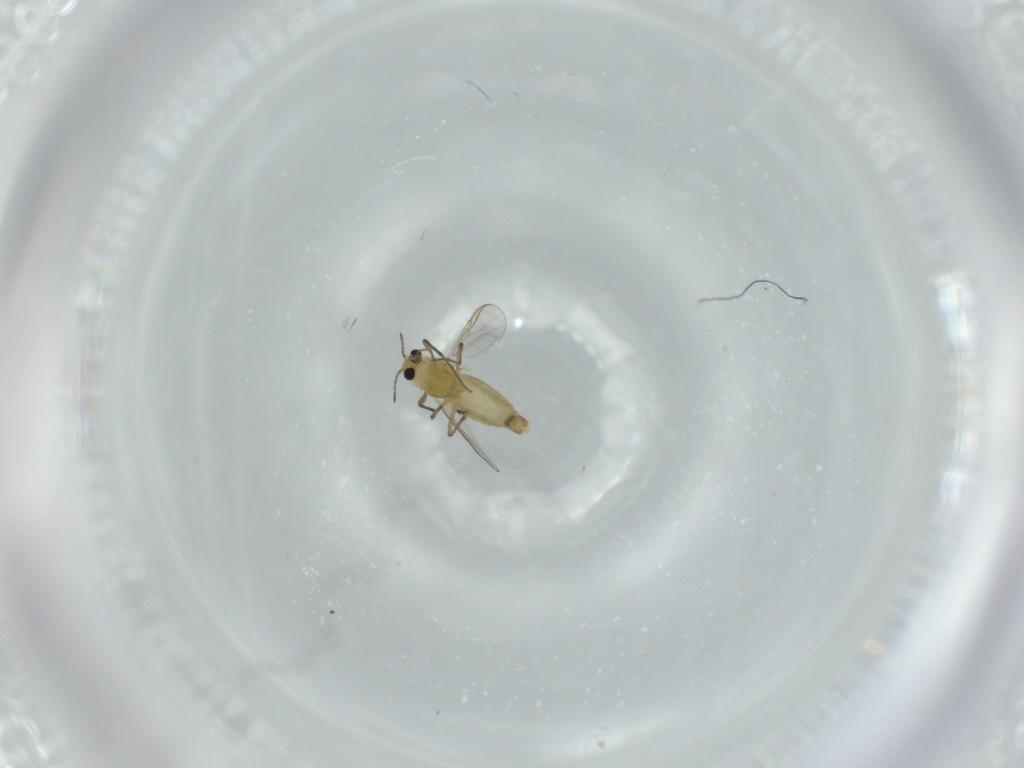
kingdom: Animalia
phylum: Arthropoda
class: Insecta
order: Diptera
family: Chironomidae
